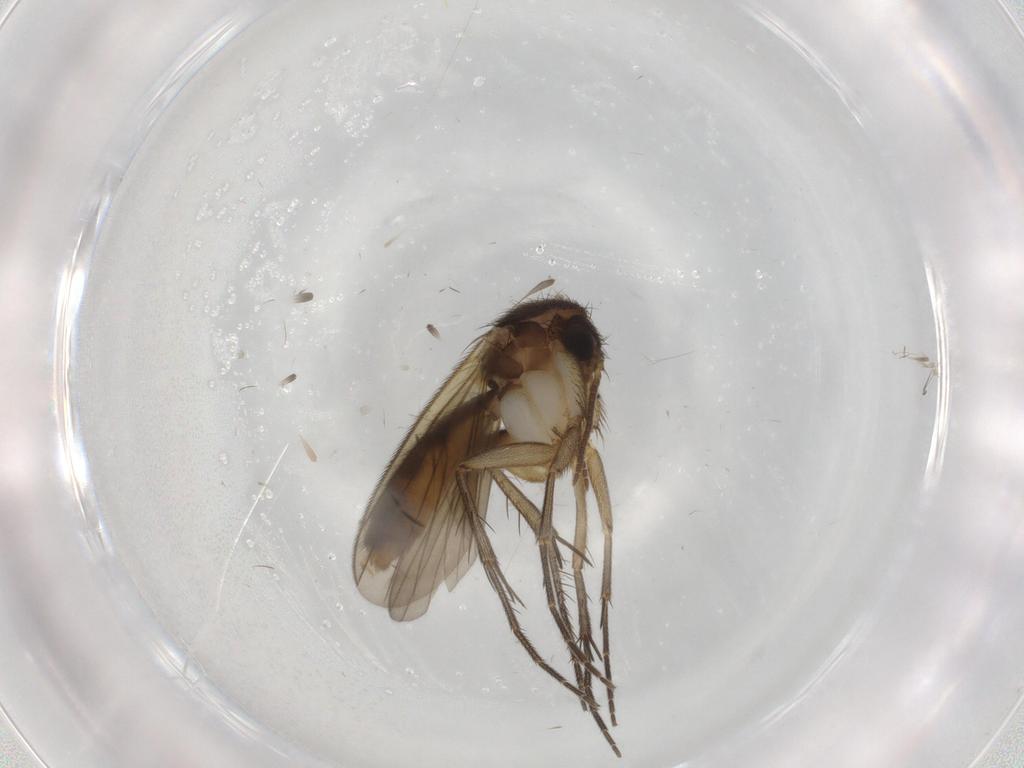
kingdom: Animalia
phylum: Arthropoda
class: Insecta
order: Diptera
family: Mycetophilidae
